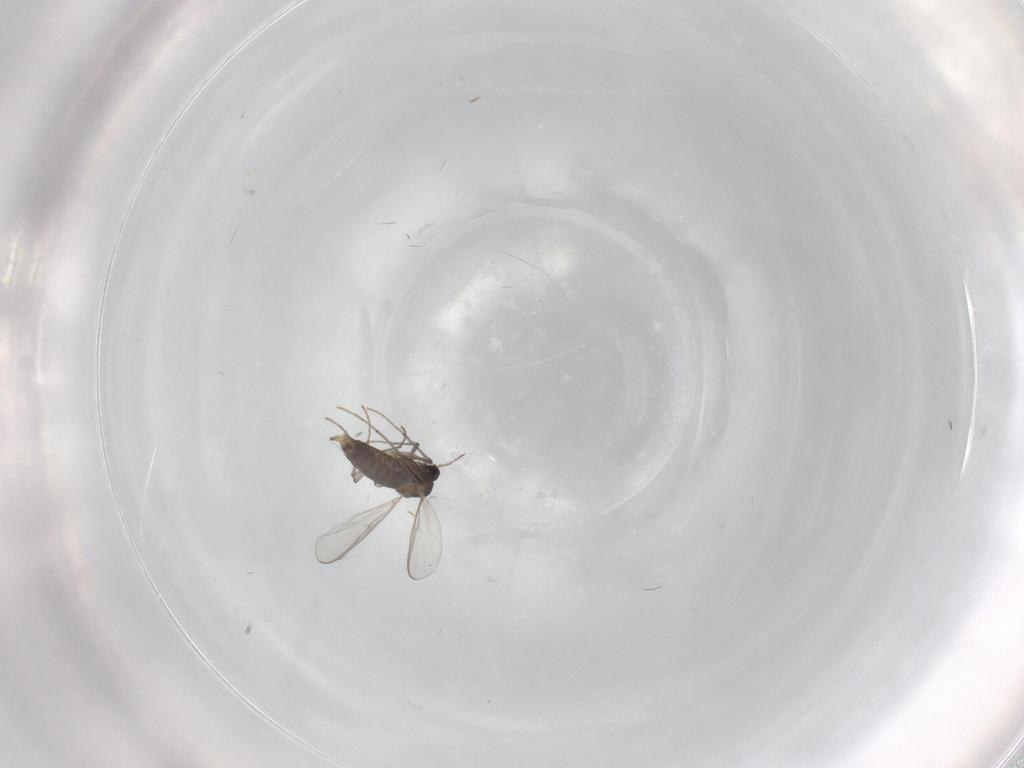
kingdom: Animalia
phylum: Arthropoda
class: Insecta
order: Diptera
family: Chironomidae
